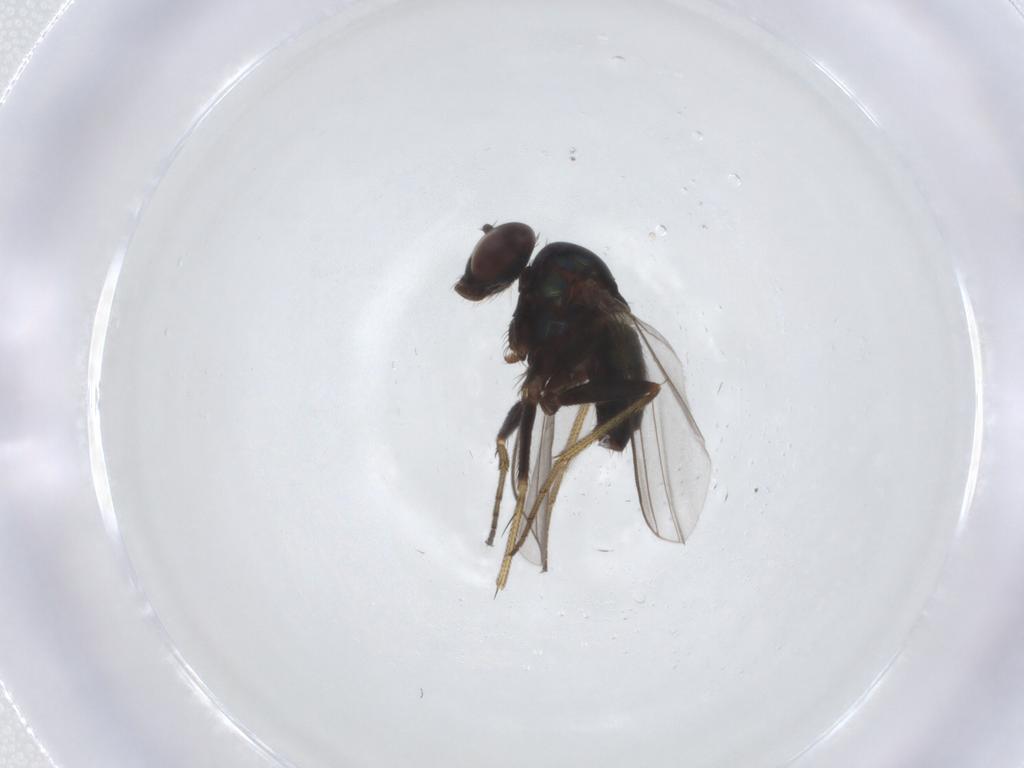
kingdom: Animalia
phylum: Arthropoda
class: Insecta
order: Diptera
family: Dolichopodidae
